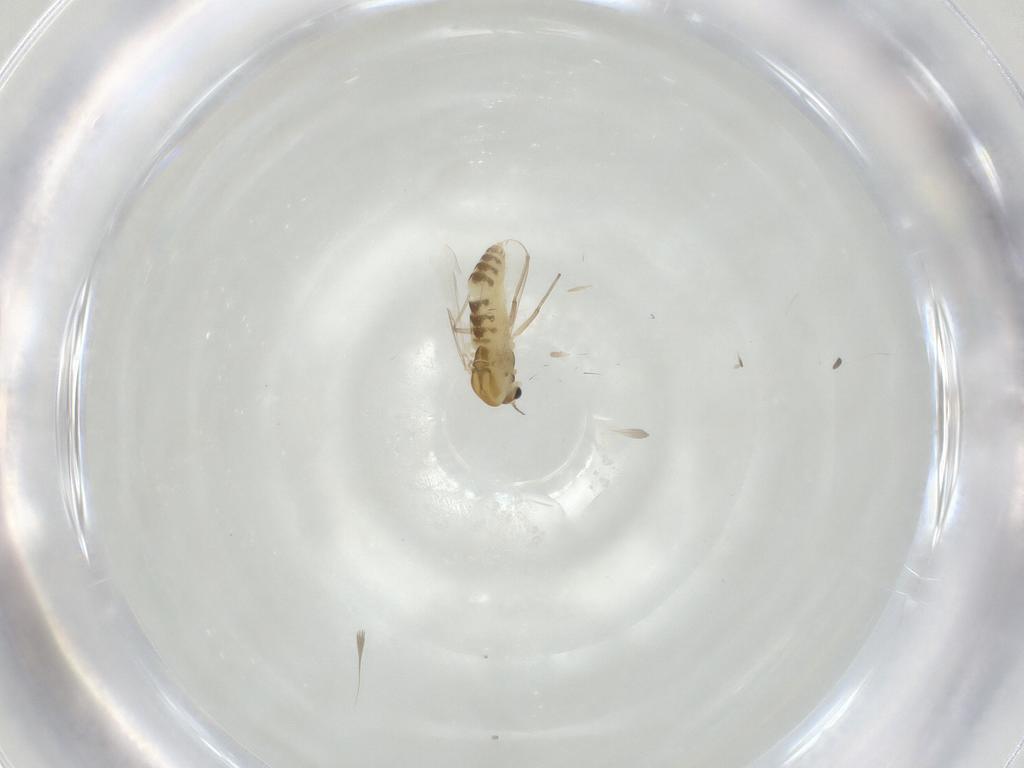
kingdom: Animalia
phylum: Arthropoda
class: Insecta
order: Diptera
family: Chironomidae
